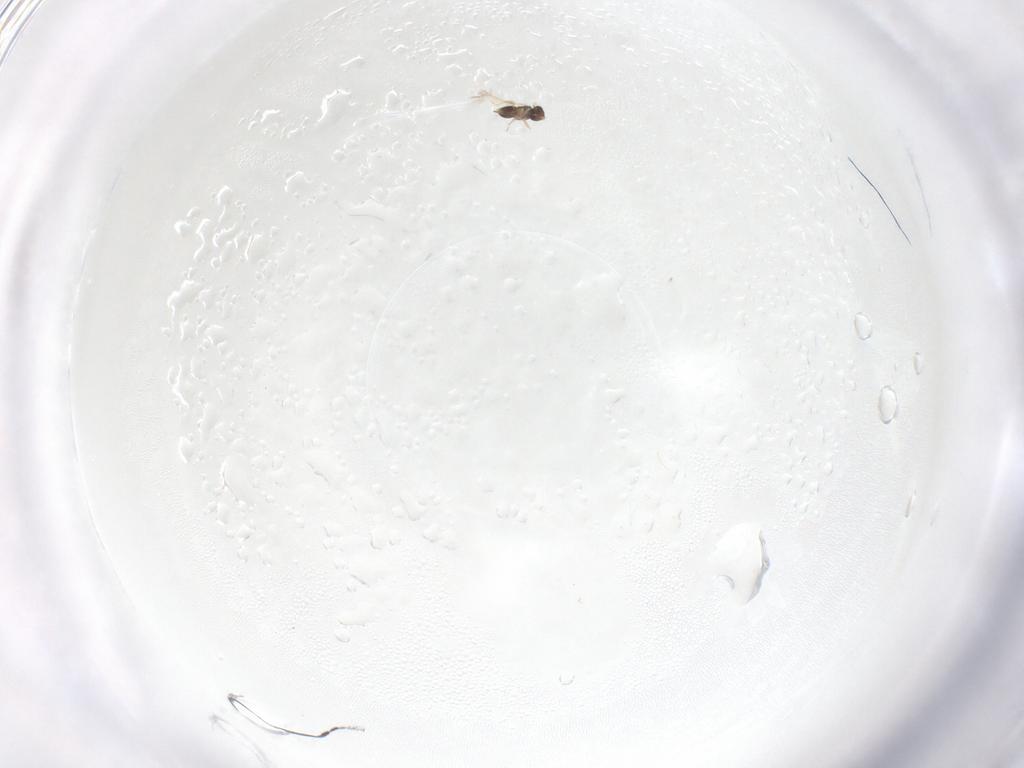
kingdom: Animalia
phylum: Arthropoda
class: Insecta
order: Hymenoptera
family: Mymaridae
